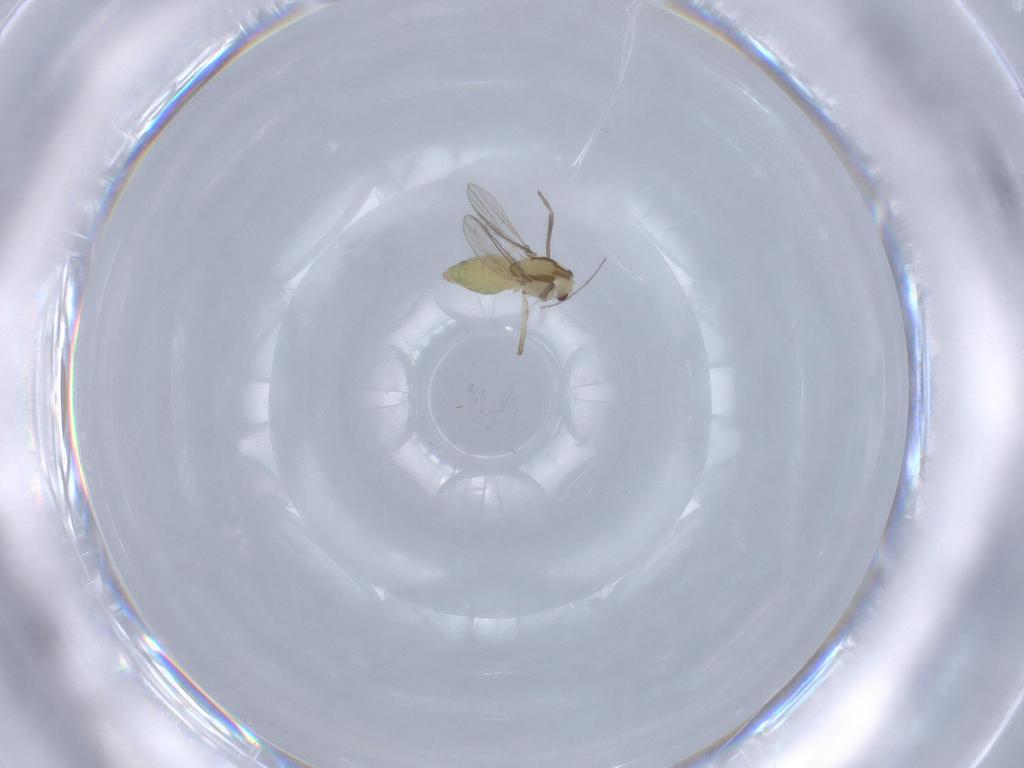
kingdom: Animalia
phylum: Arthropoda
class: Insecta
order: Diptera
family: Chironomidae
